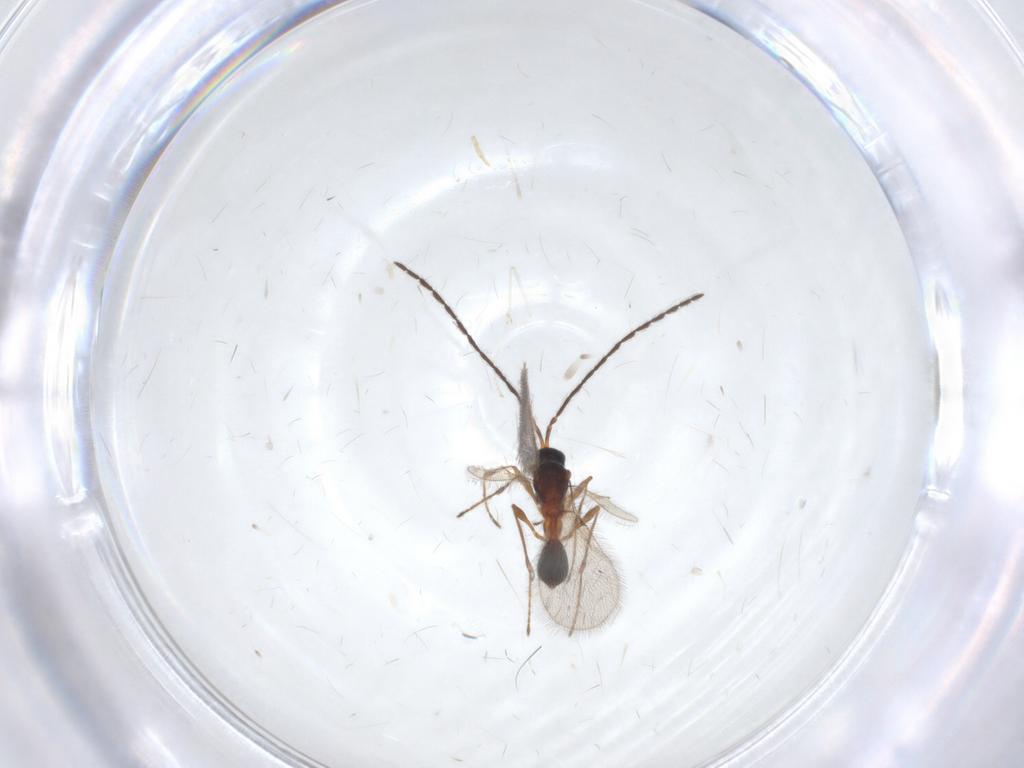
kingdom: Animalia
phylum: Arthropoda
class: Insecta
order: Hymenoptera
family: Diapriidae
